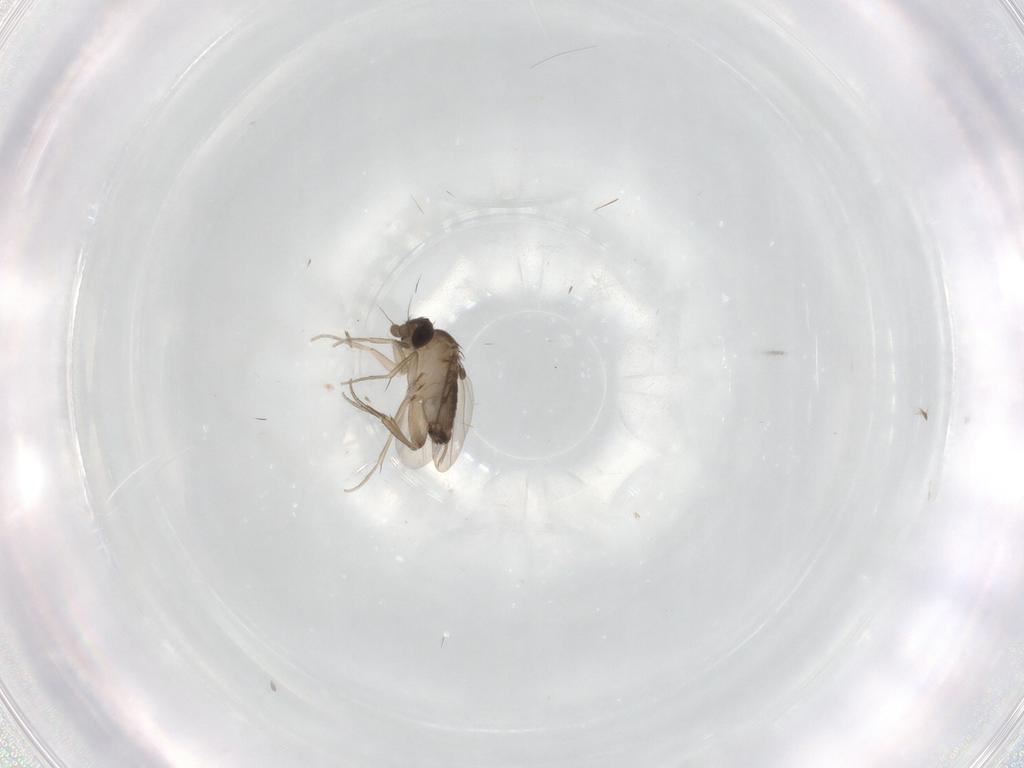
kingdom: Animalia
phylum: Arthropoda
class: Insecta
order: Diptera
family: Phoridae
